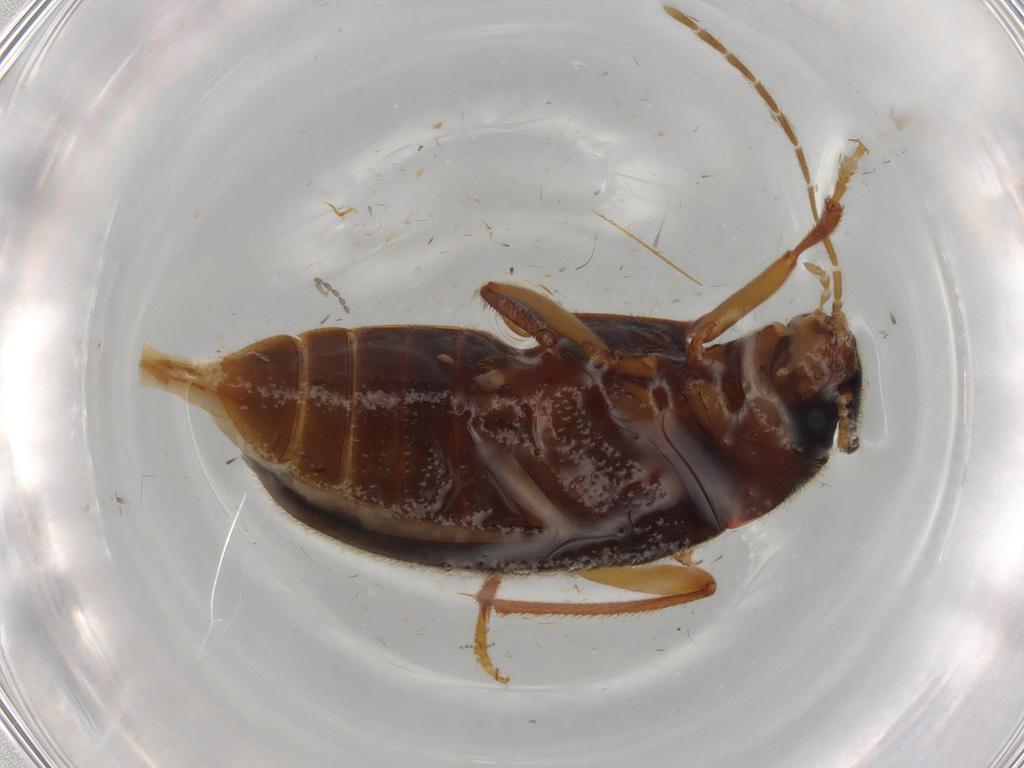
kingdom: Animalia
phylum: Arthropoda
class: Insecta
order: Coleoptera
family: Ptilodactylidae
